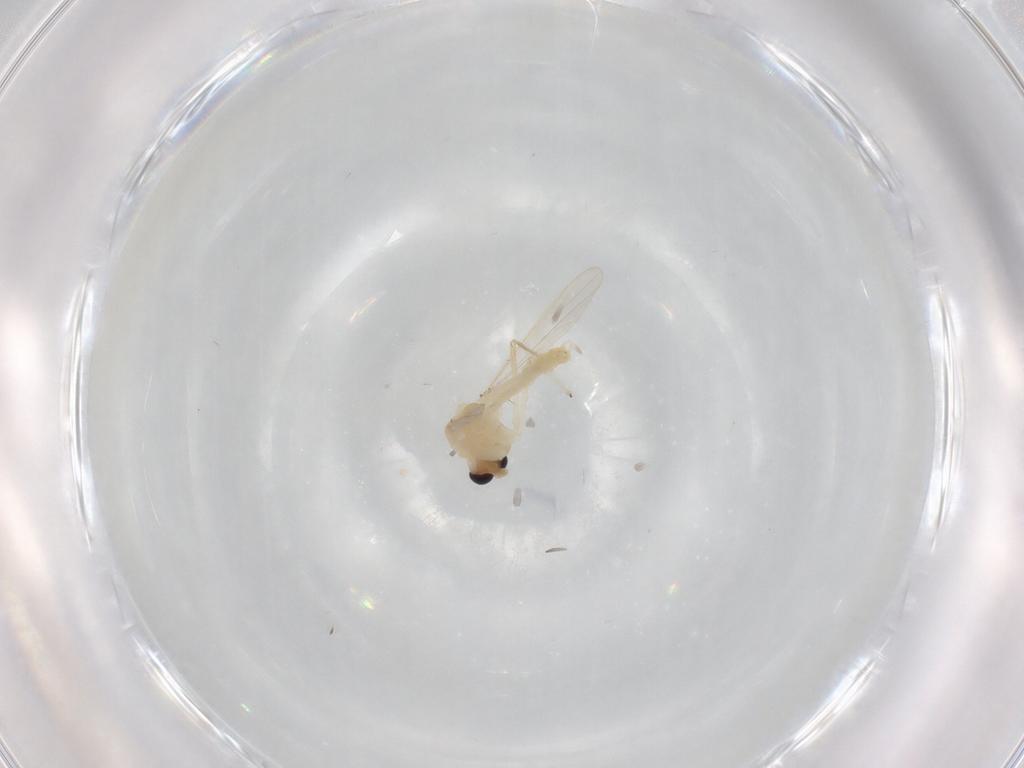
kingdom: Animalia
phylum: Arthropoda
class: Insecta
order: Diptera
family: Chironomidae
